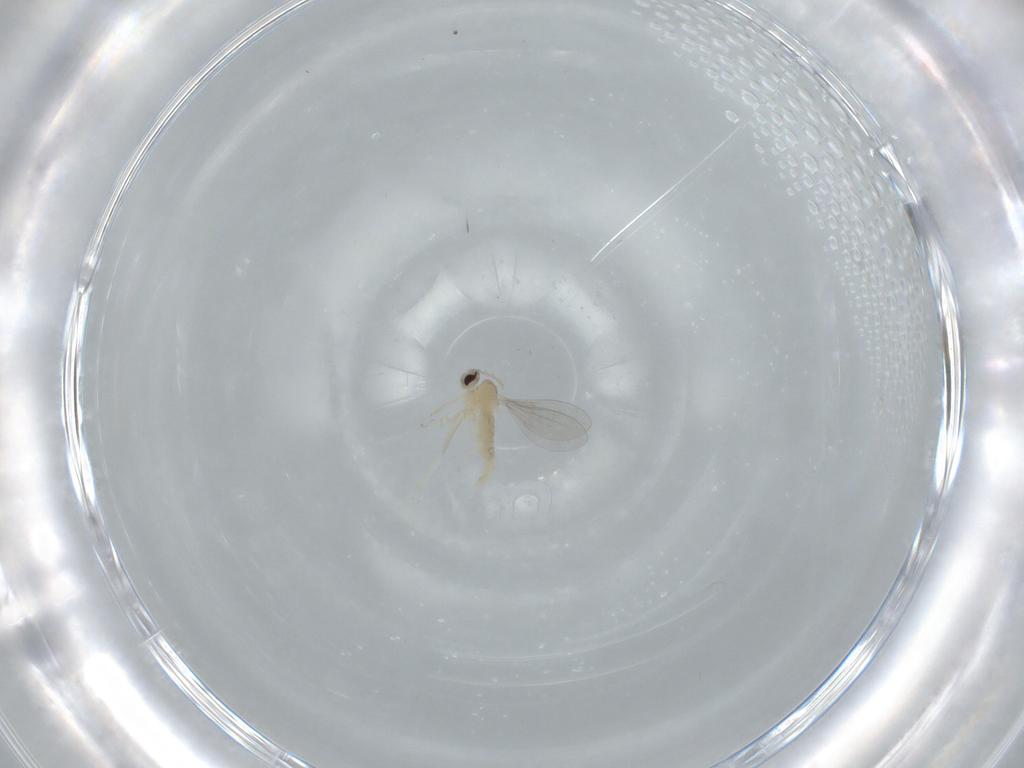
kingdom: Animalia
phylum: Arthropoda
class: Insecta
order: Diptera
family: Cecidomyiidae
